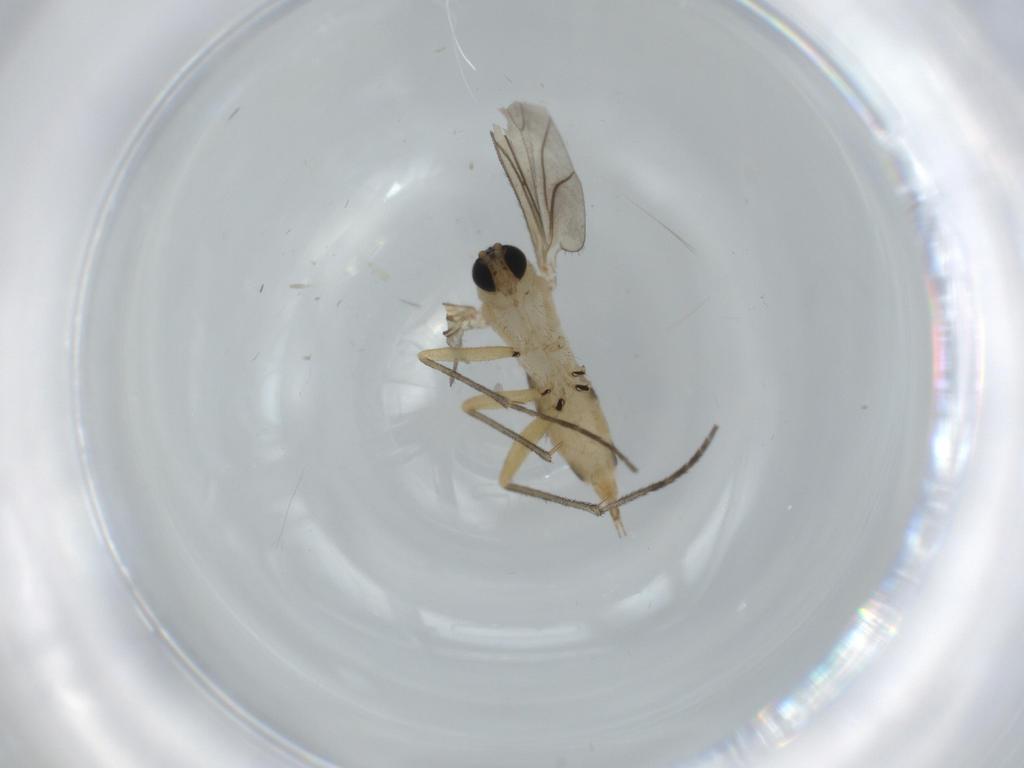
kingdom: Animalia
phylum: Arthropoda
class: Insecta
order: Diptera
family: Sciaridae
